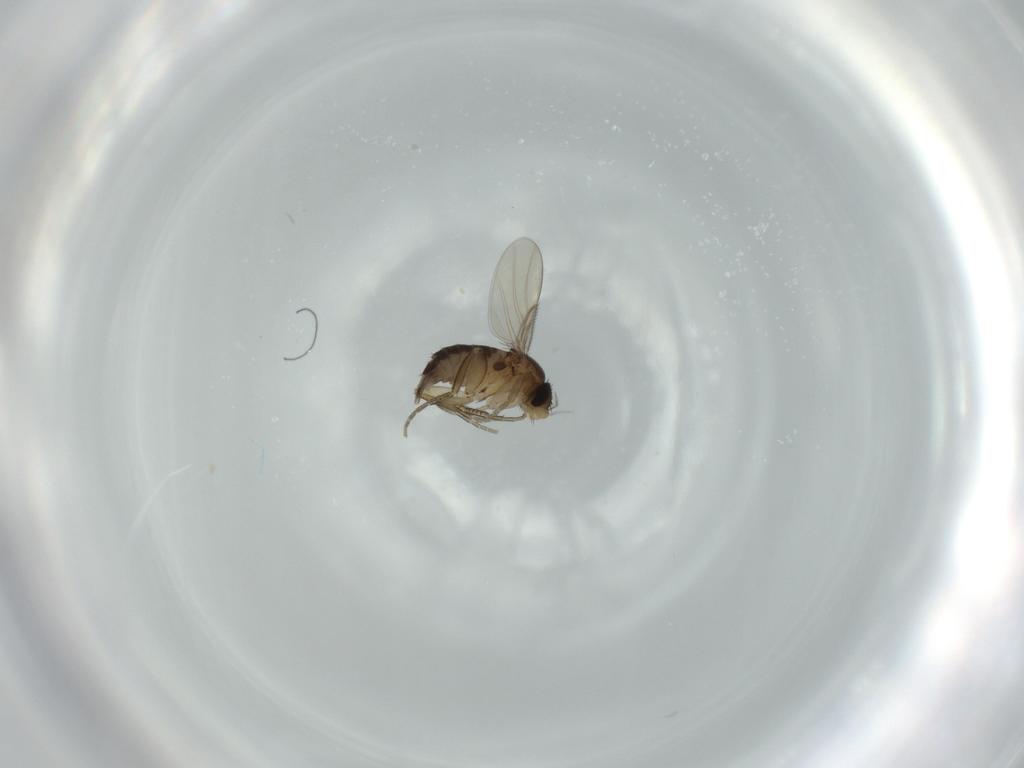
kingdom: Animalia
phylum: Arthropoda
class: Insecta
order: Diptera
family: Phoridae
